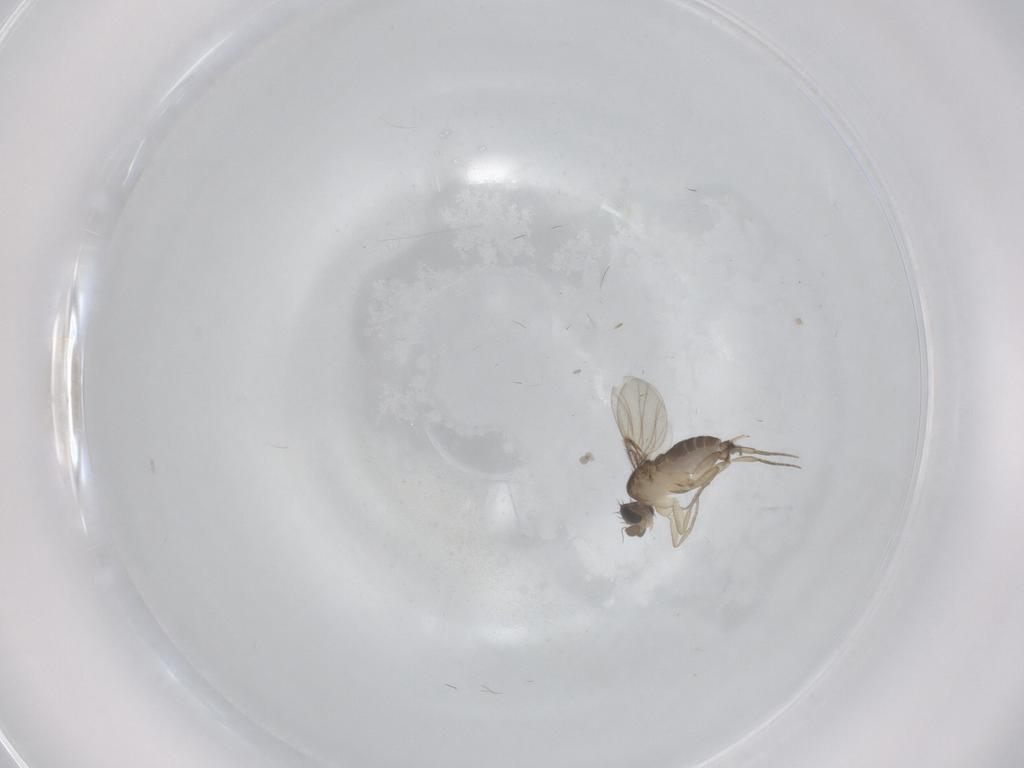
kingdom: Animalia
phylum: Arthropoda
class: Insecta
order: Diptera
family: Phoridae
